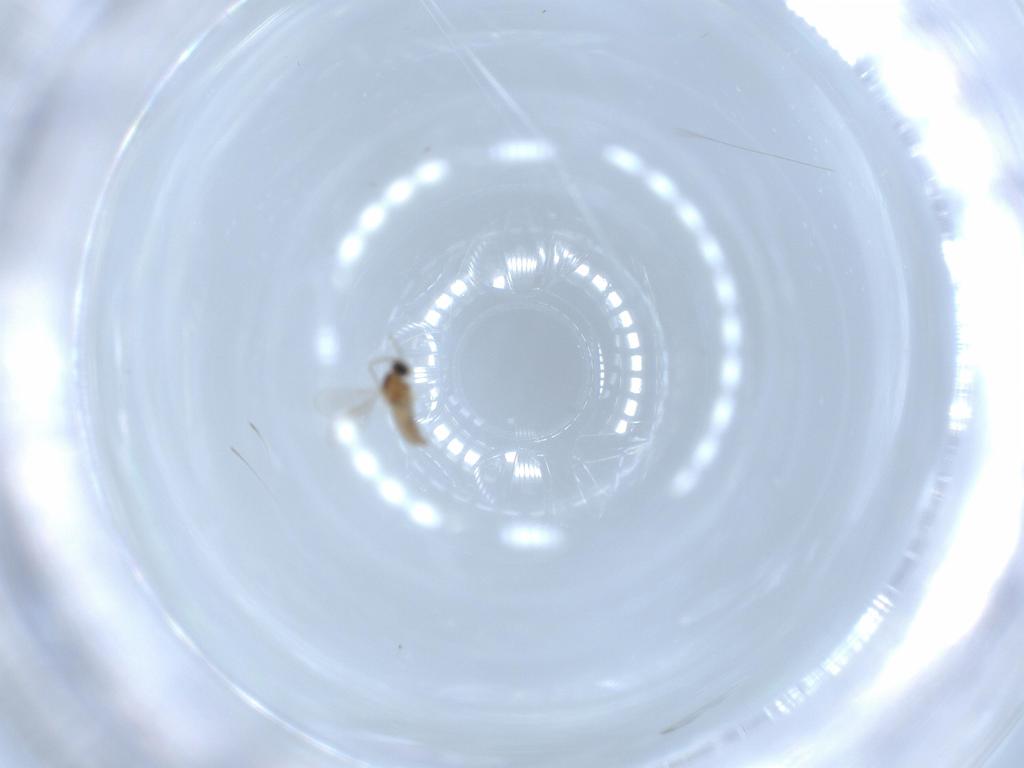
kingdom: Animalia
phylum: Arthropoda
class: Insecta
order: Diptera
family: Cecidomyiidae
